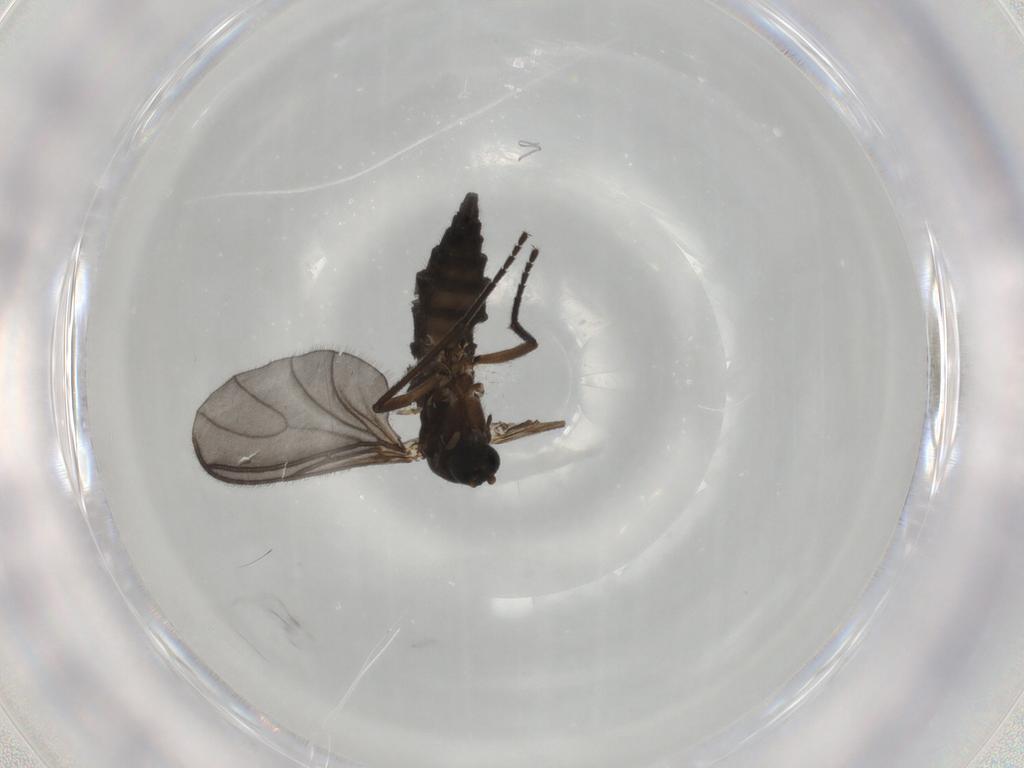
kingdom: Animalia
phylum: Arthropoda
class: Insecta
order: Diptera
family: Sciaridae
